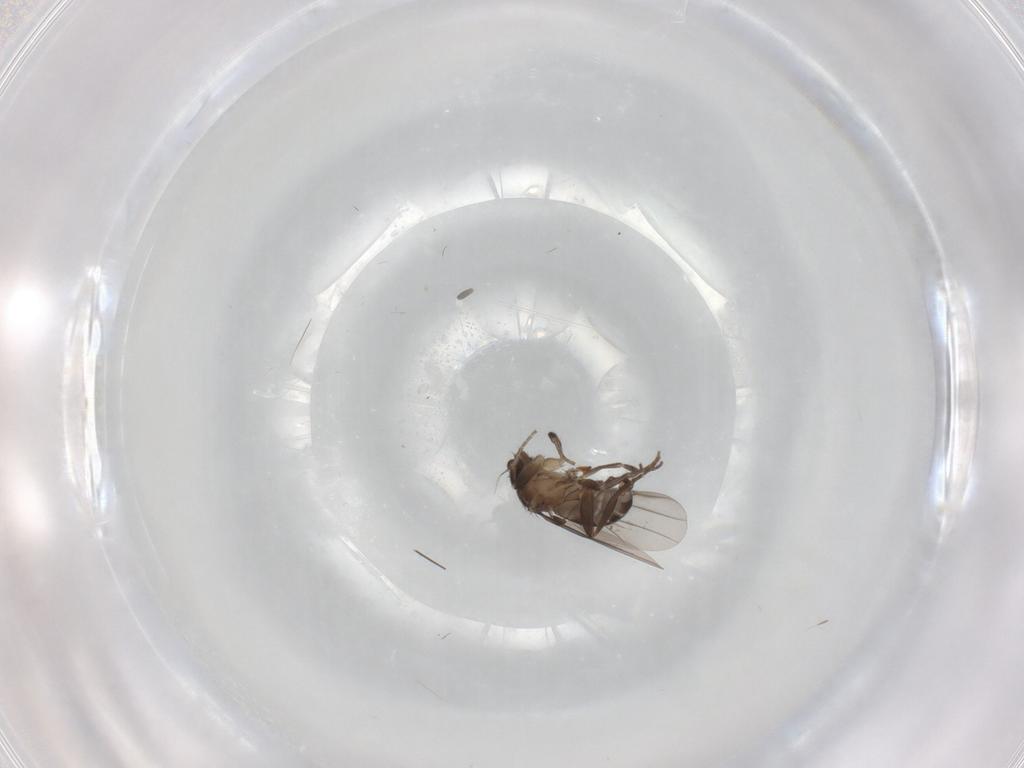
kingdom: Animalia
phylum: Arthropoda
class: Insecta
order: Diptera
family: Phoridae
